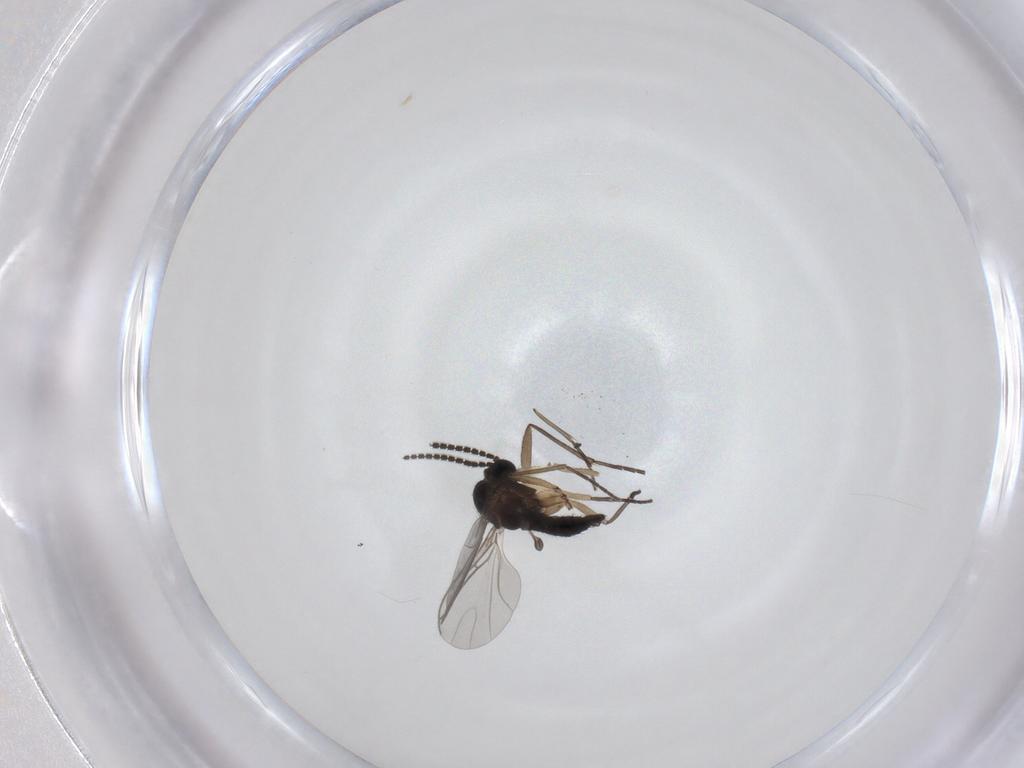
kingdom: Animalia
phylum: Arthropoda
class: Insecta
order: Diptera
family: Sciaridae
